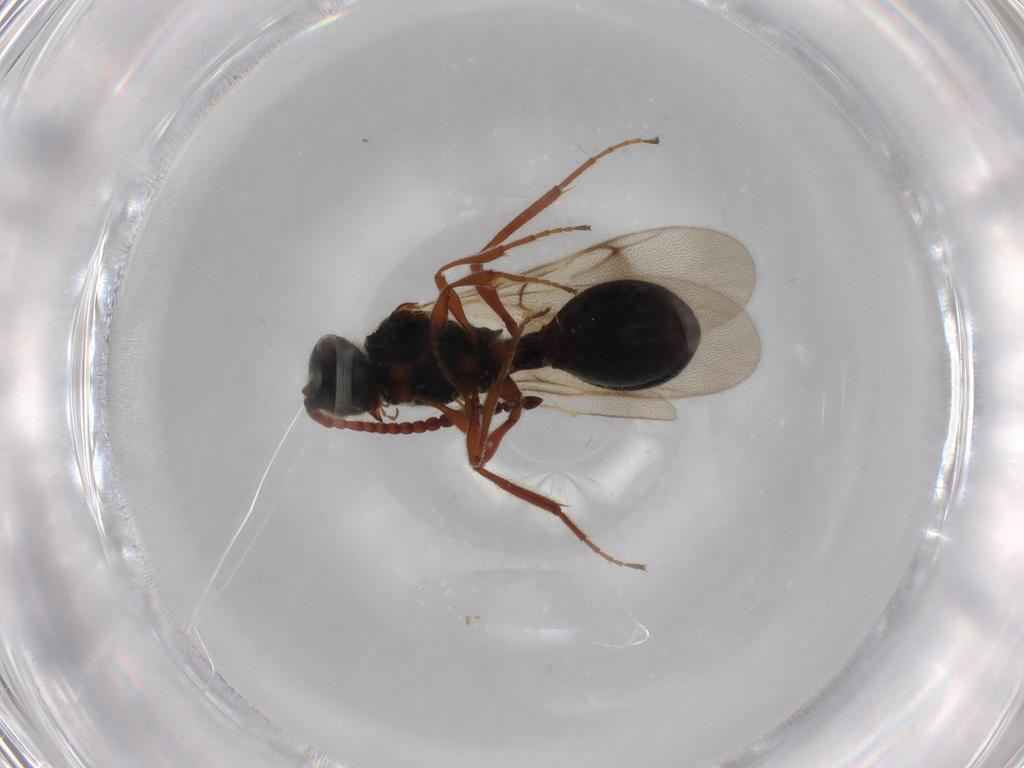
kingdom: Animalia
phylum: Arthropoda
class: Insecta
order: Hymenoptera
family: Diapriidae
